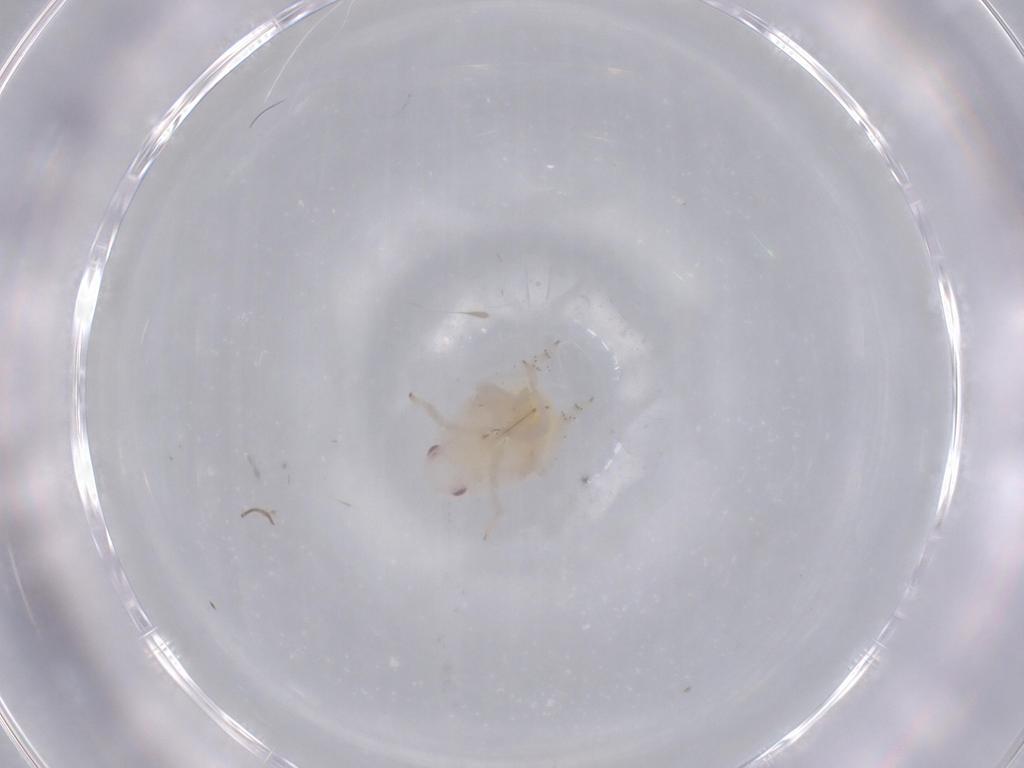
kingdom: Animalia
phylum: Arthropoda
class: Insecta
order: Hemiptera
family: Flatidae
